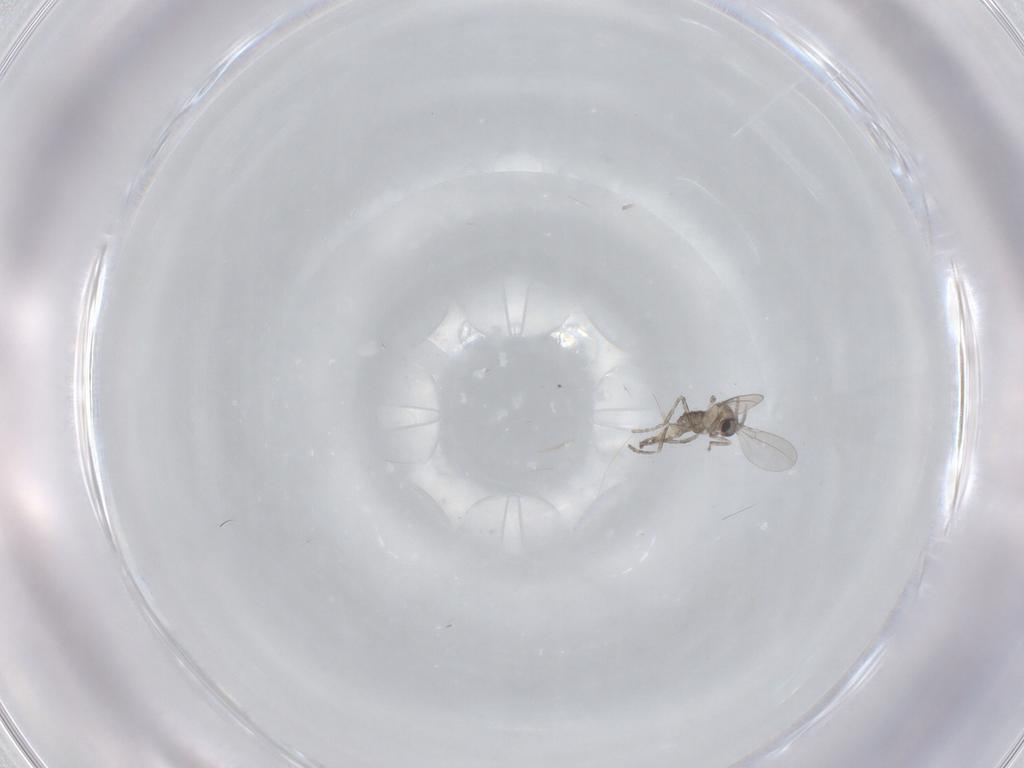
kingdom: Animalia
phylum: Arthropoda
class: Insecta
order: Diptera
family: Cecidomyiidae
